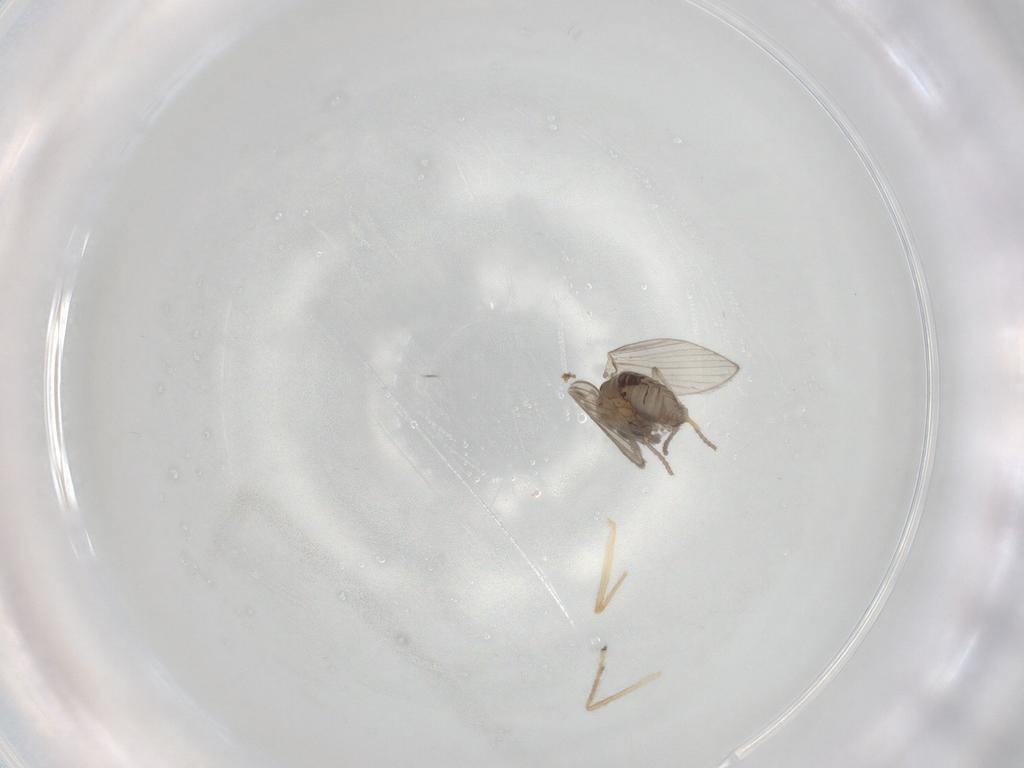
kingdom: Animalia
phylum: Arthropoda
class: Insecta
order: Diptera
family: Psychodidae
